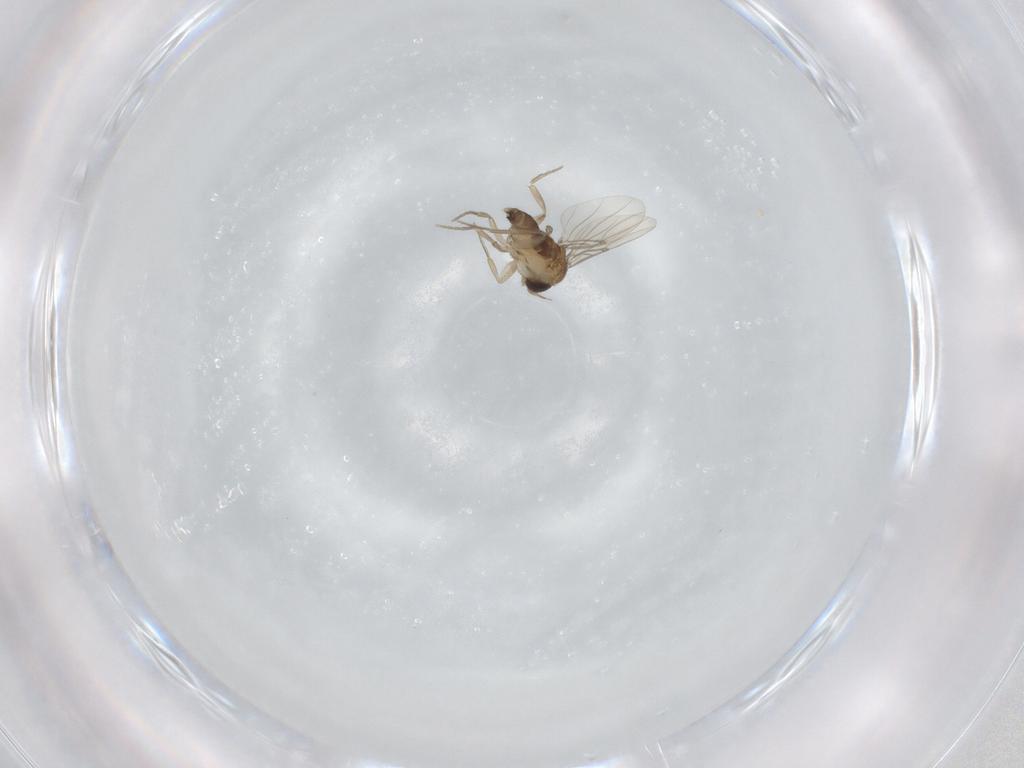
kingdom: Animalia
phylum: Arthropoda
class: Insecta
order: Diptera
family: Phoridae
